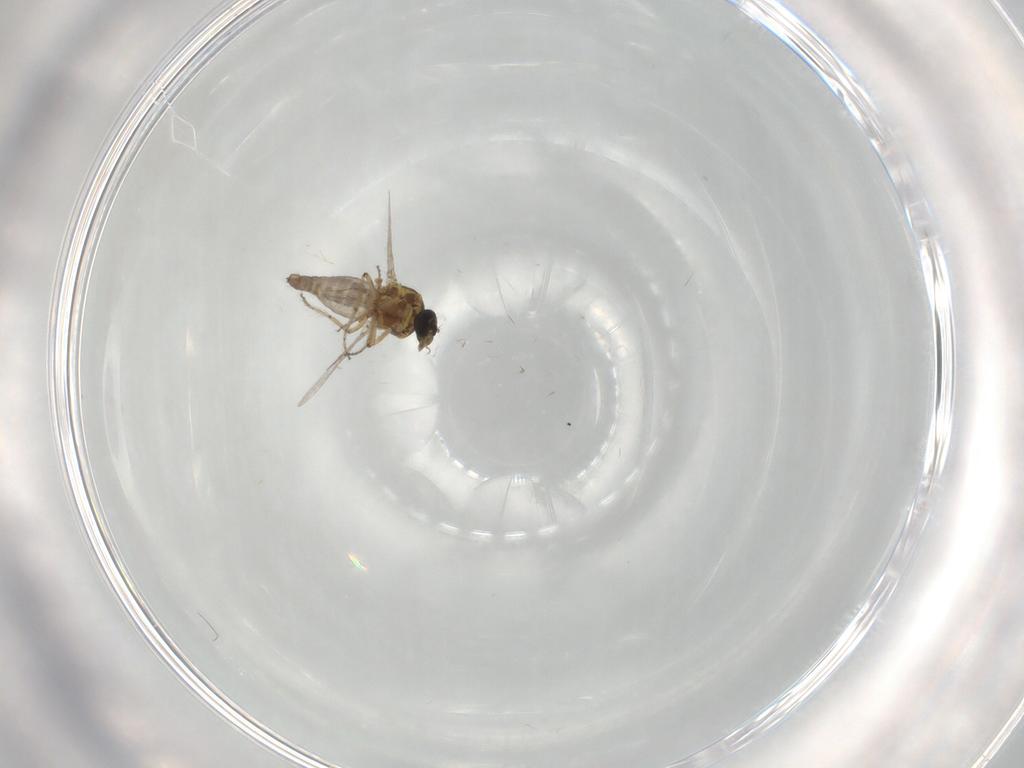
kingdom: Animalia
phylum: Arthropoda
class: Insecta
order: Diptera
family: Ceratopogonidae
